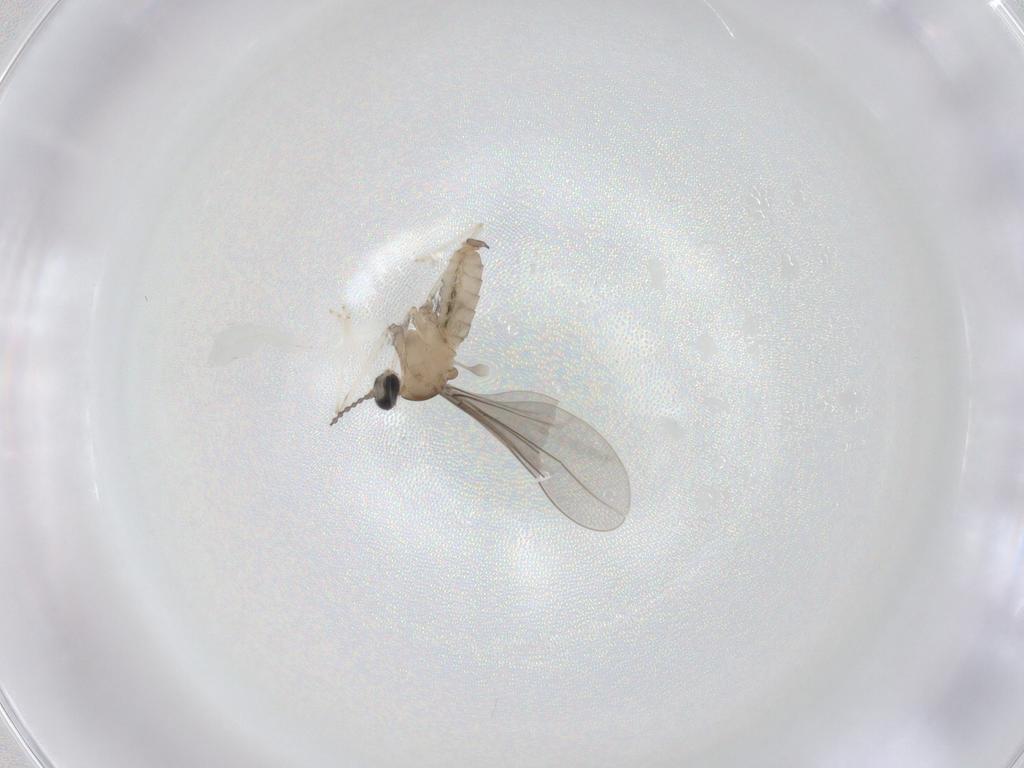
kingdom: Animalia
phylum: Arthropoda
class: Insecta
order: Diptera
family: Cecidomyiidae
